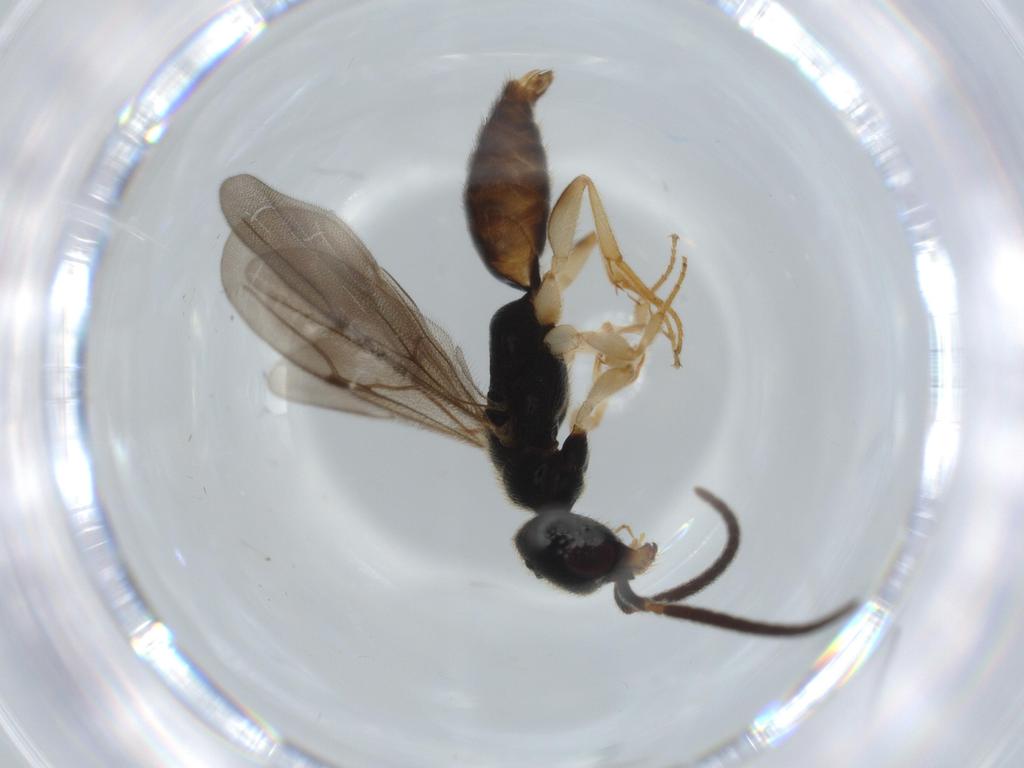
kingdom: Animalia
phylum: Arthropoda
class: Insecta
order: Hymenoptera
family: Bethylidae
